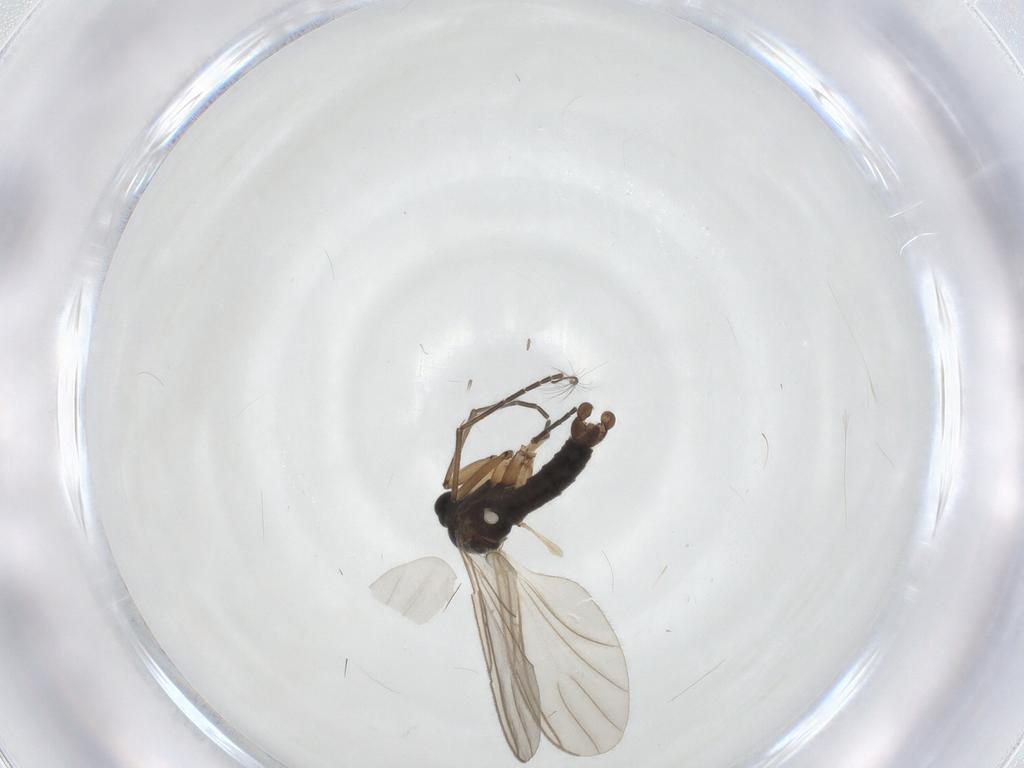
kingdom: Animalia
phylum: Arthropoda
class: Insecta
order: Diptera
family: Sciaridae
